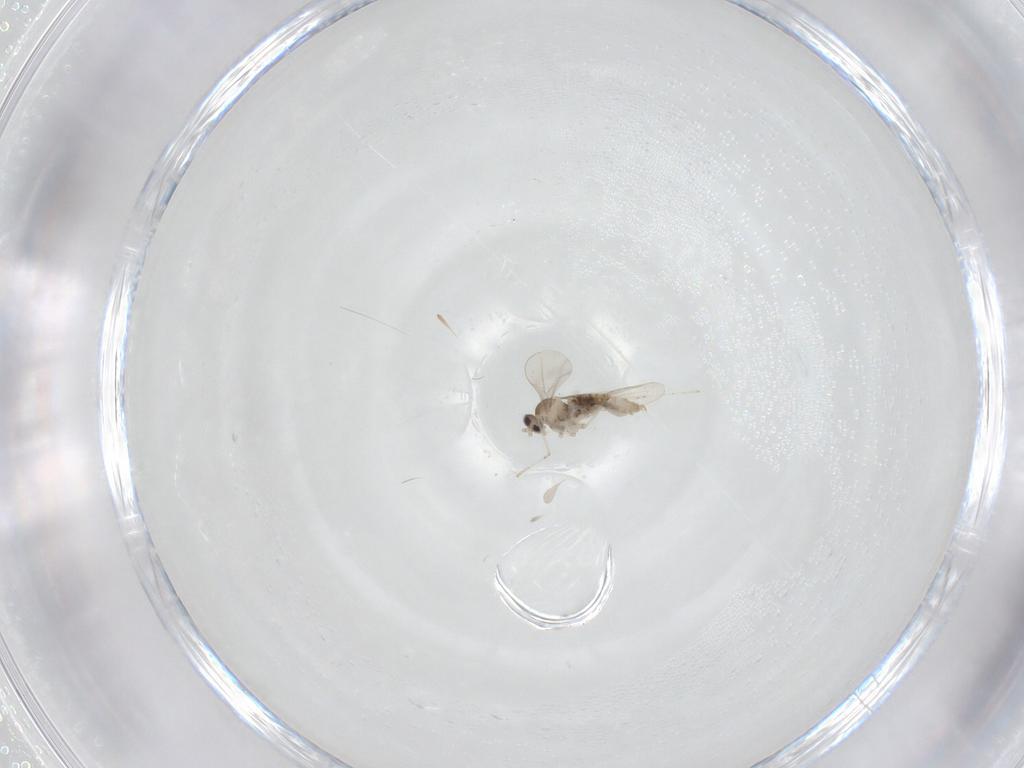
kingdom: Animalia
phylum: Arthropoda
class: Insecta
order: Diptera
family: Cecidomyiidae
